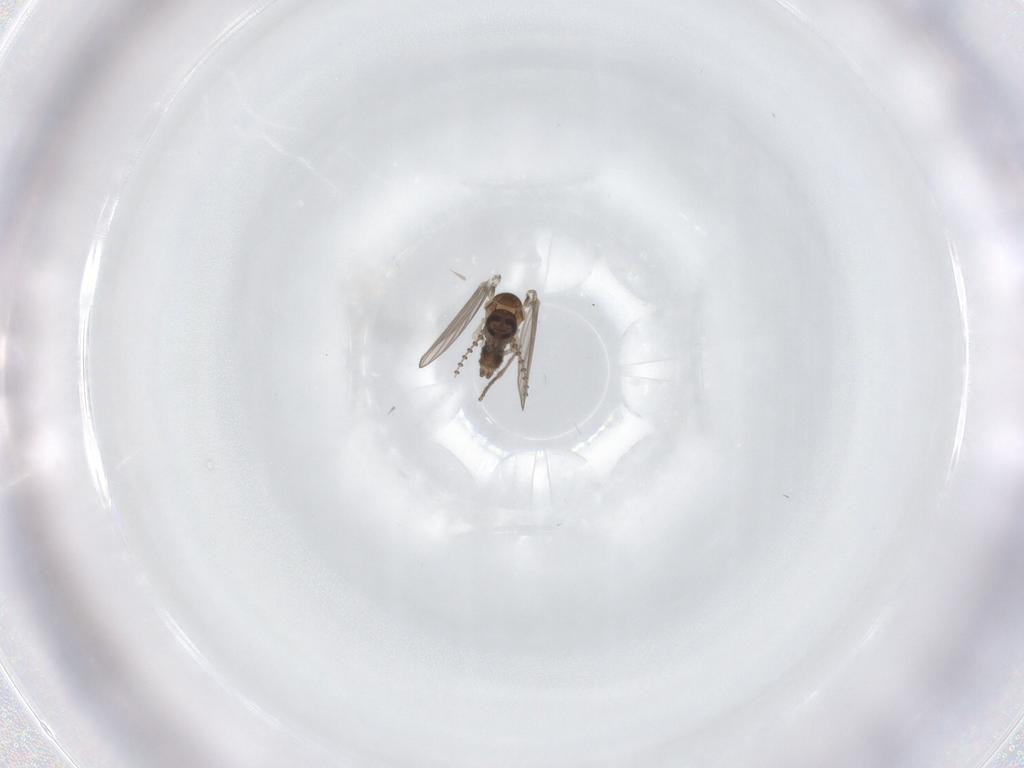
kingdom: Animalia
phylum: Arthropoda
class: Insecta
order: Diptera
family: Psychodidae
